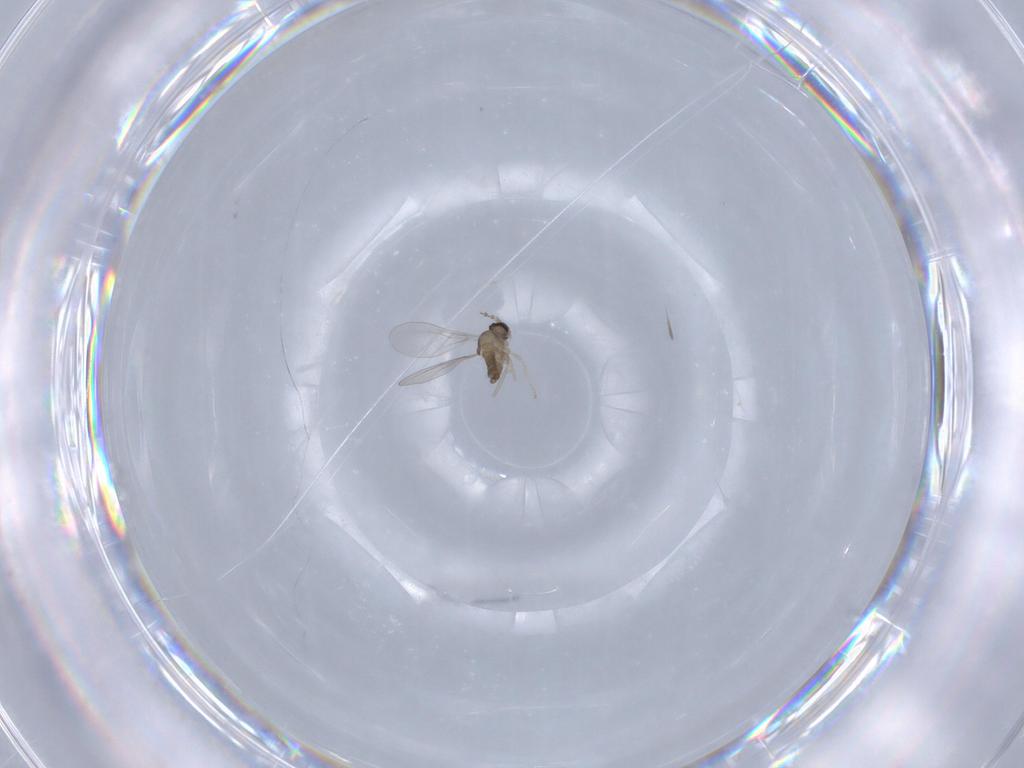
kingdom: Animalia
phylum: Arthropoda
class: Insecta
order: Diptera
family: Cecidomyiidae
